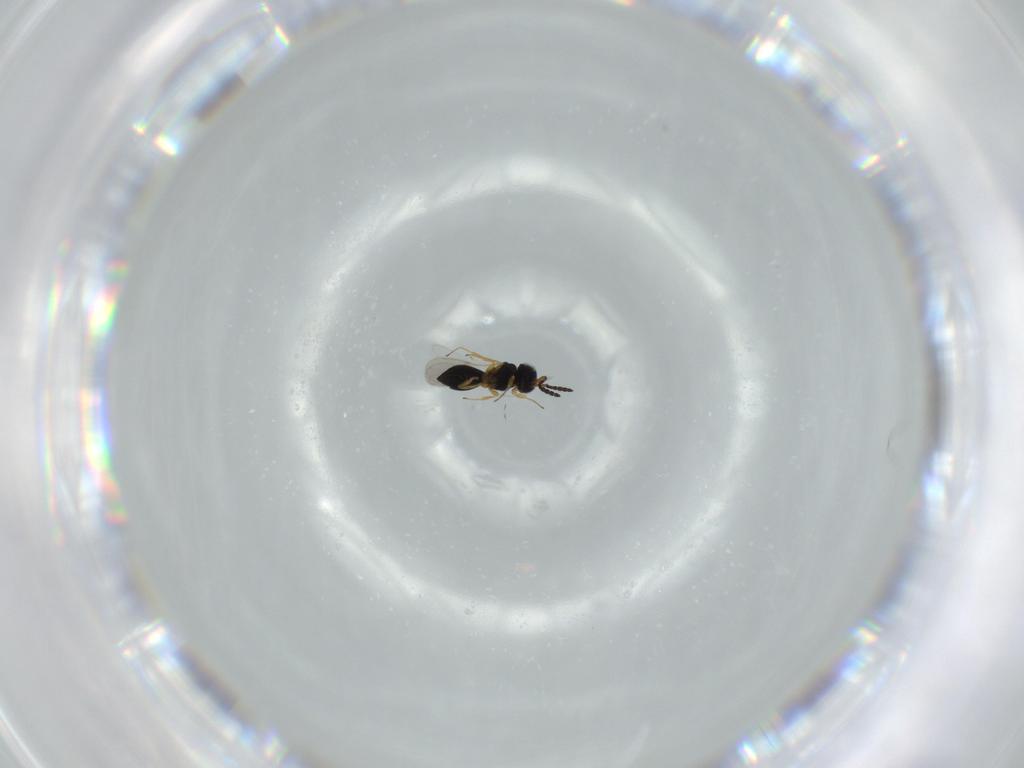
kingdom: Animalia
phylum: Arthropoda
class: Insecta
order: Hymenoptera
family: Scelionidae
